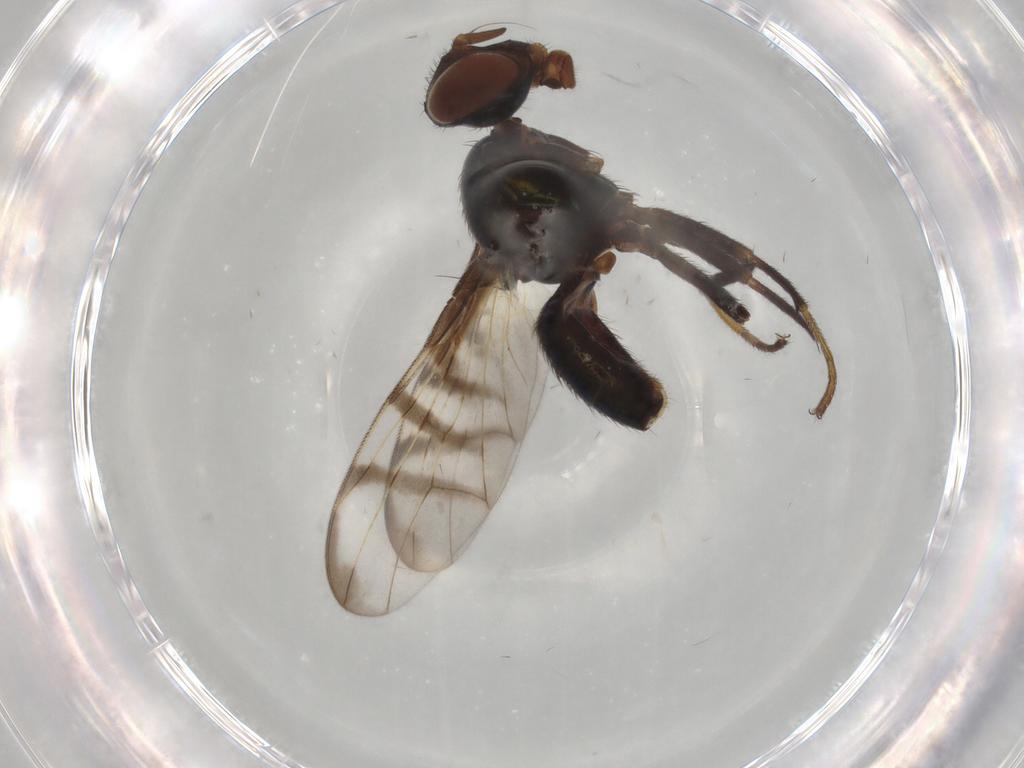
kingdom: Animalia
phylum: Arthropoda
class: Insecta
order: Diptera
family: Platystomatidae
